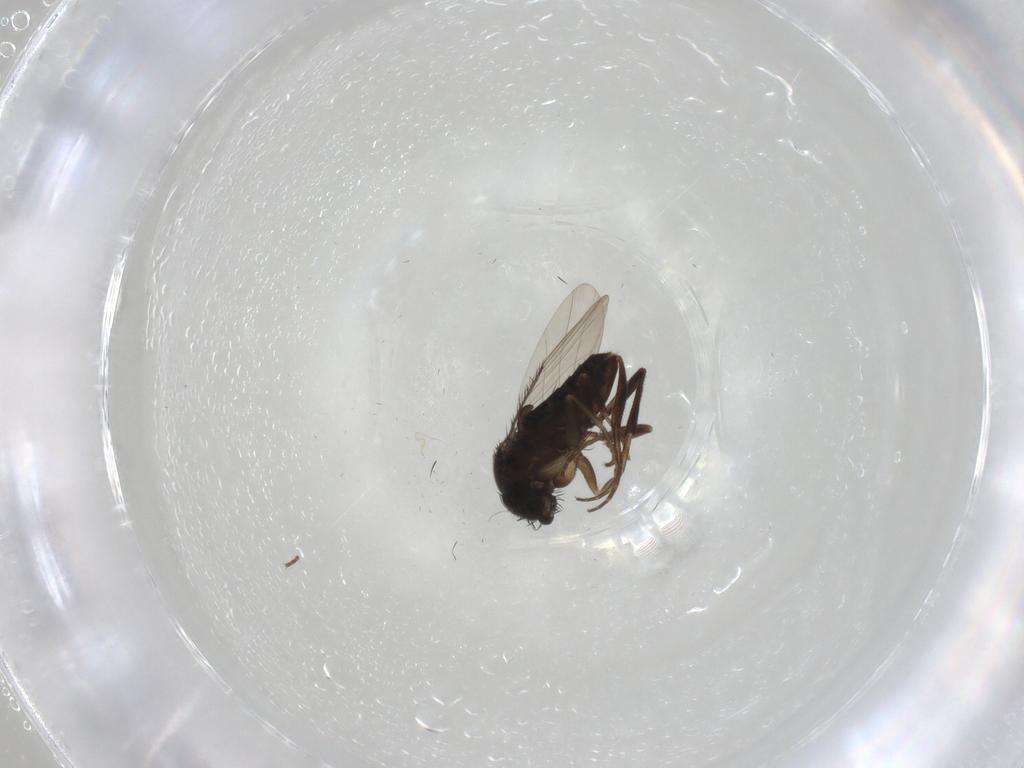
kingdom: Animalia
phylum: Arthropoda
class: Insecta
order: Diptera
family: Phoridae
